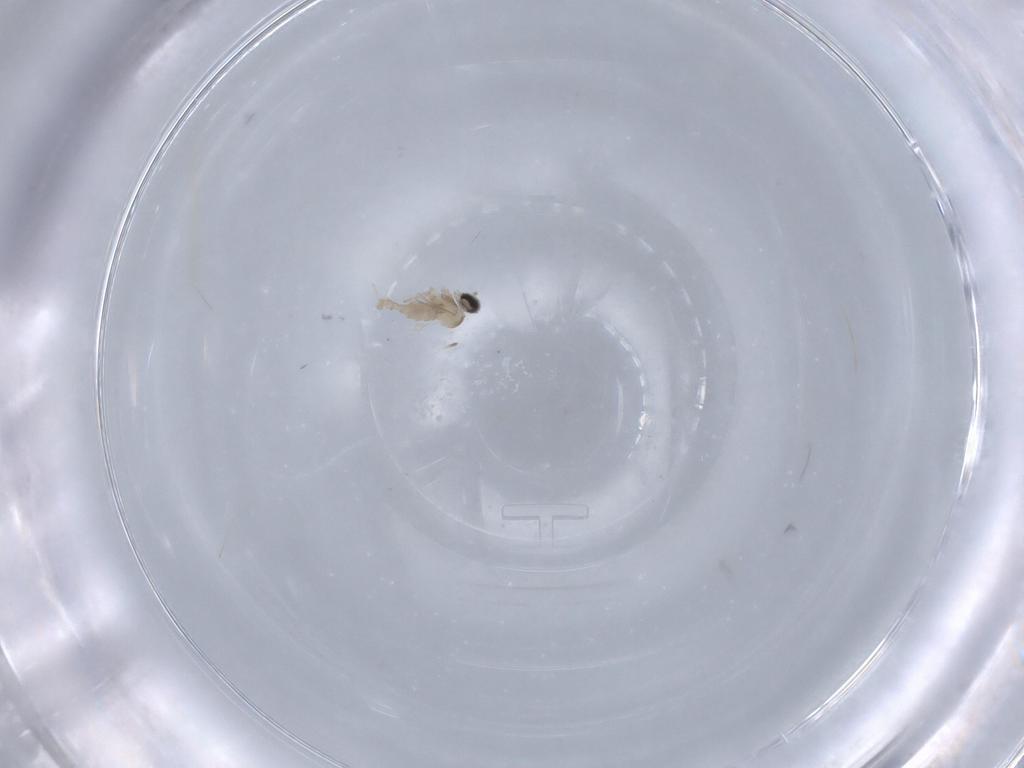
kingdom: Animalia
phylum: Arthropoda
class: Insecta
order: Diptera
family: Cecidomyiidae
